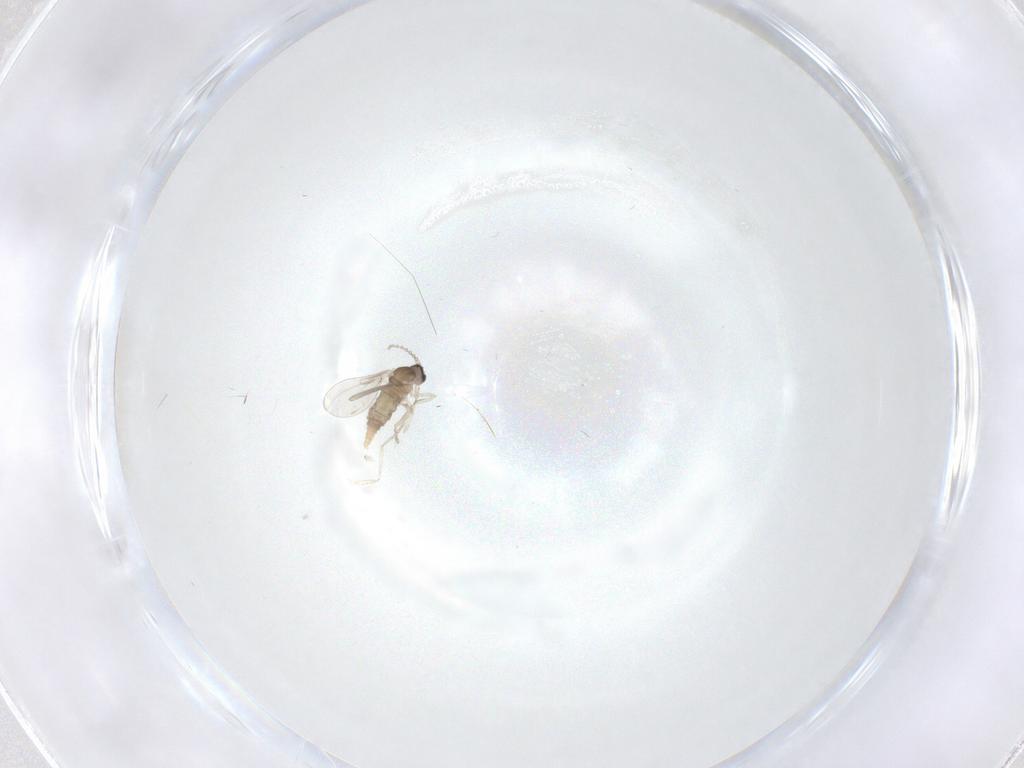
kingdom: Animalia
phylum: Arthropoda
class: Insecta
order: Diptera
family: Cecidomyiidae
